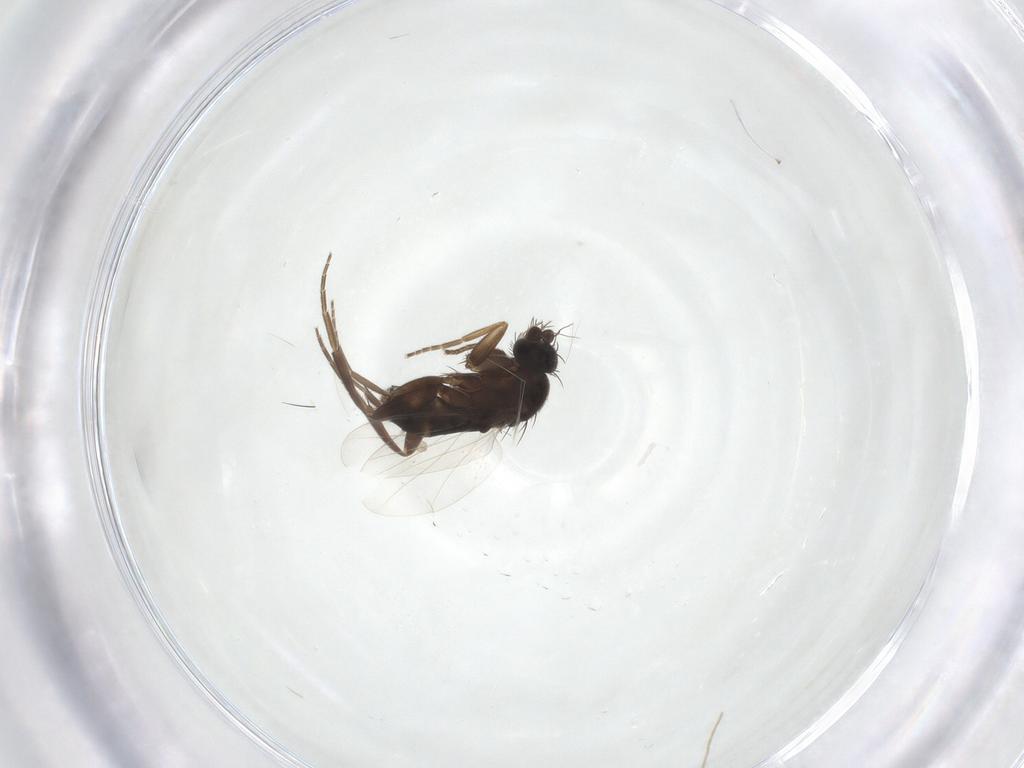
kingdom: Animalia
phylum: Arthropoda
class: Insecta
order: Diptera
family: Phoridae
